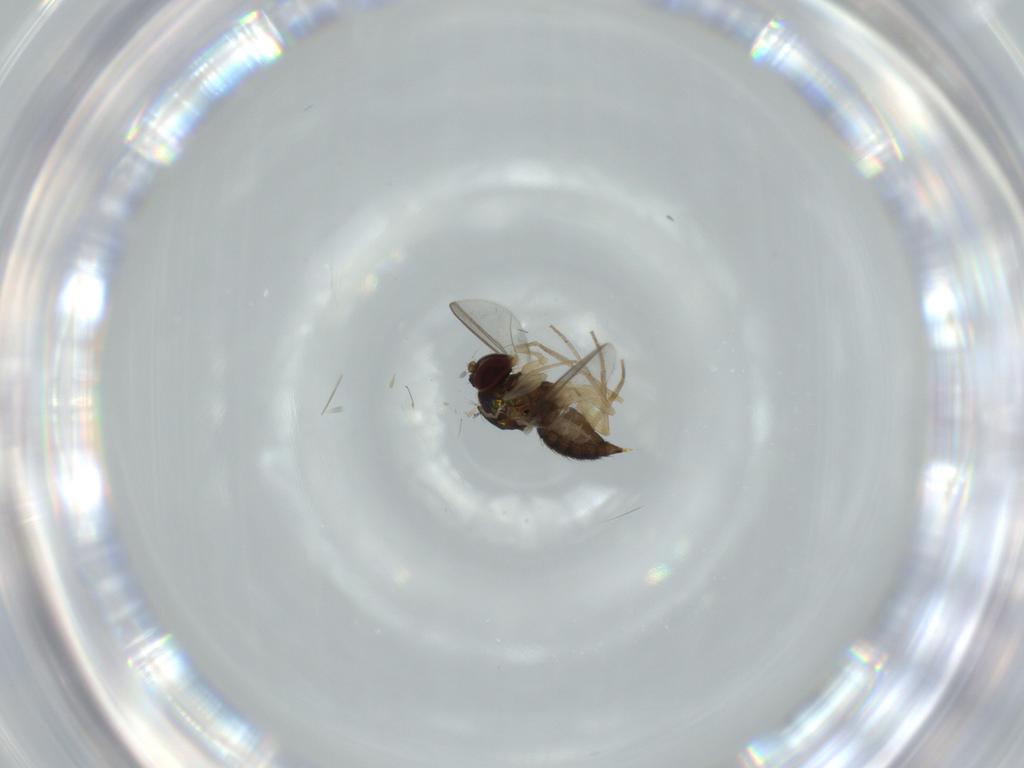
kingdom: Animalia
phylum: Arthropoda
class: Insecta
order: Diptera
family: Dolichopodidae
